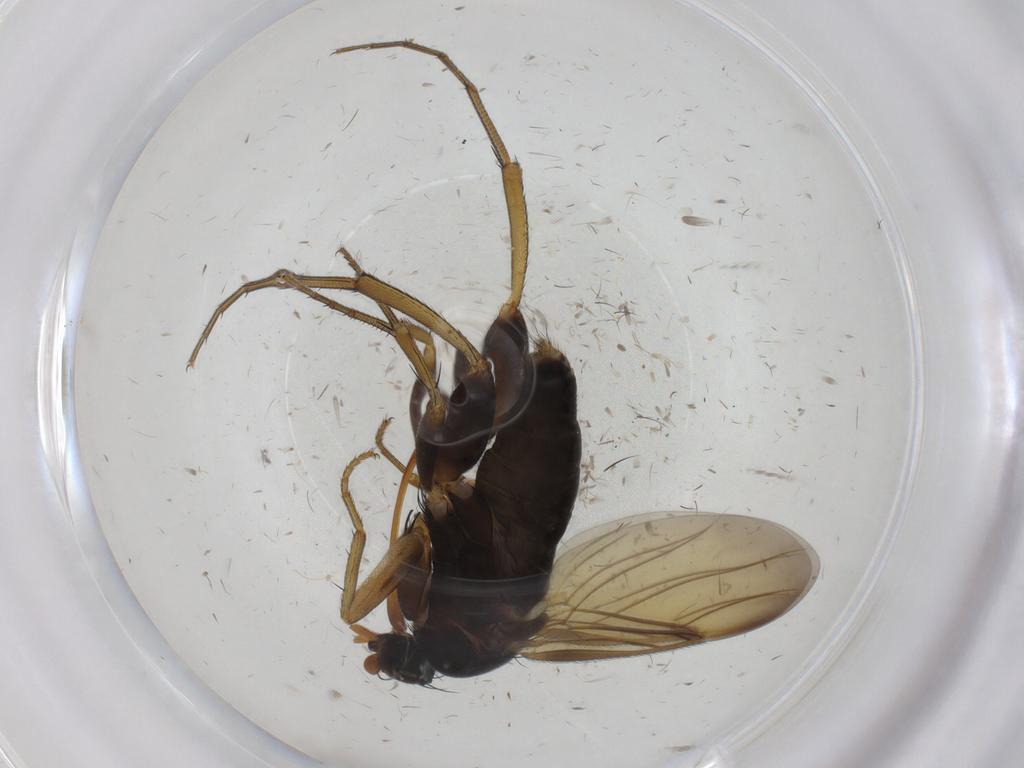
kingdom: Animalia
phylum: Arthropoda
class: Insecta
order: Diptera
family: Phoridae
